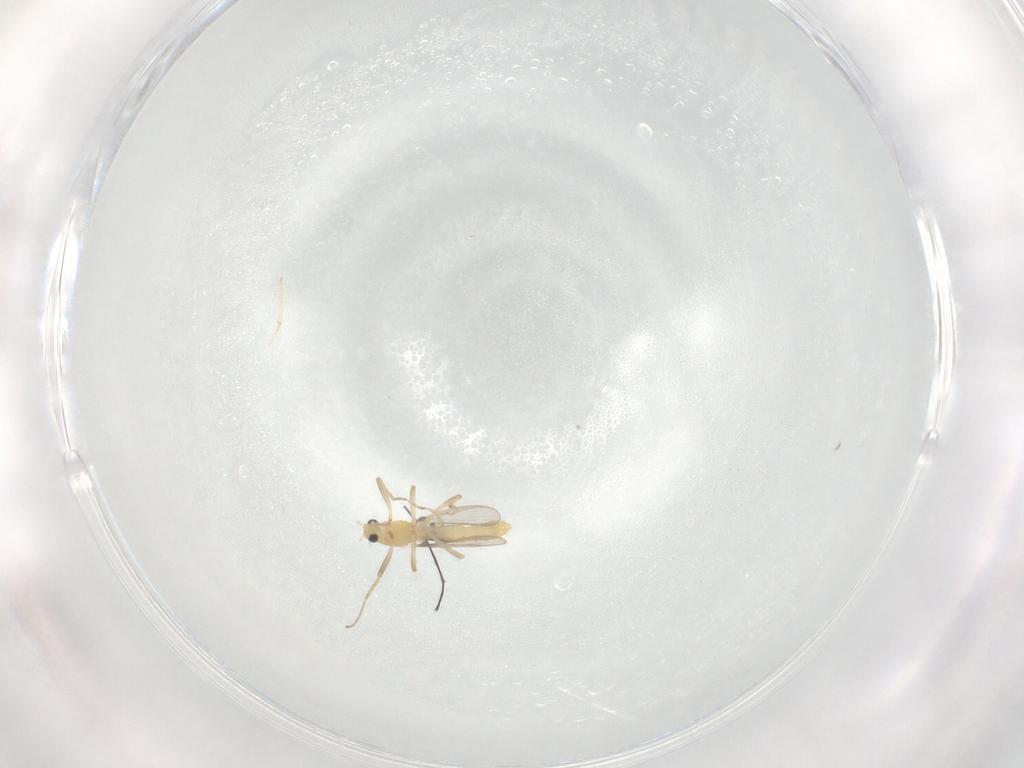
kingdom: Animalia
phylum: Arthropoda
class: Insecta
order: Diptera
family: Chironomidae
